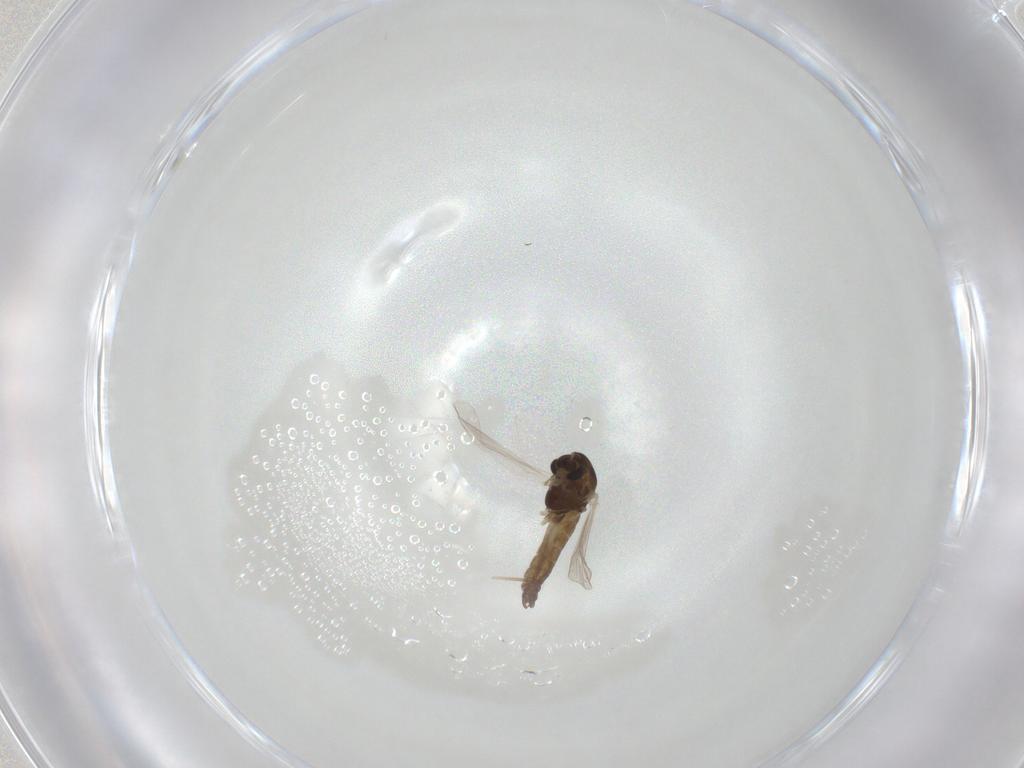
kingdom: Animalia
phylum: Arthropoda
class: Insecta
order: Diptera
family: Chironomidae
